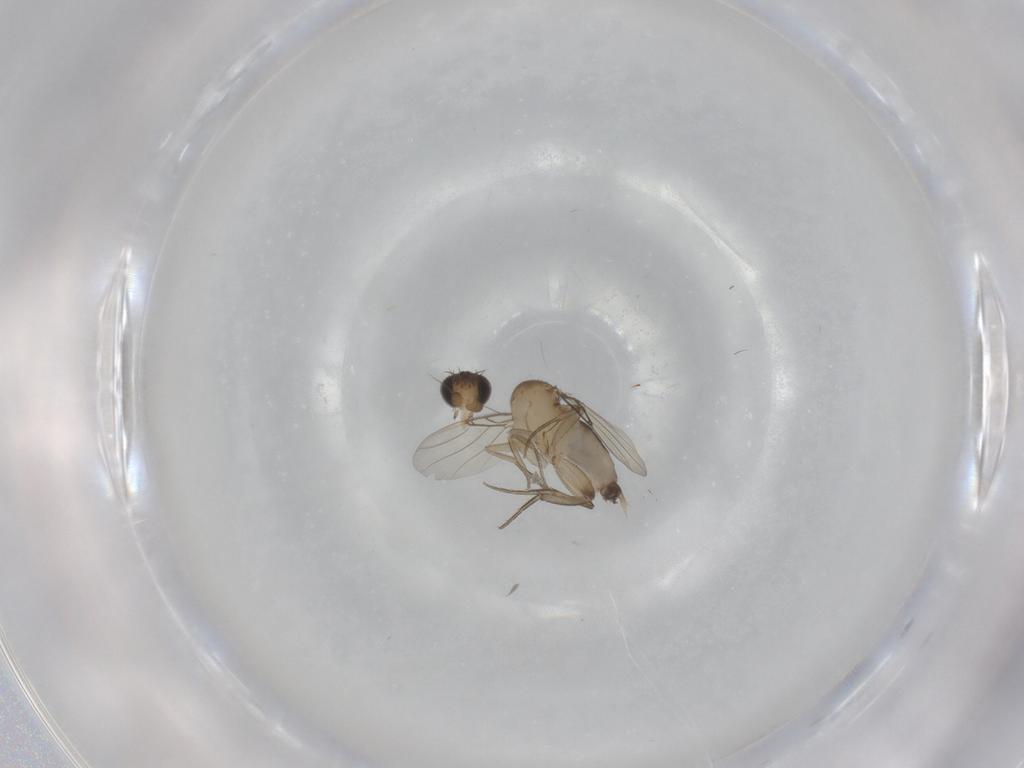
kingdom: Animalia
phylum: Arthropoda
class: Insecta
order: Diptera
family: Phoridae
